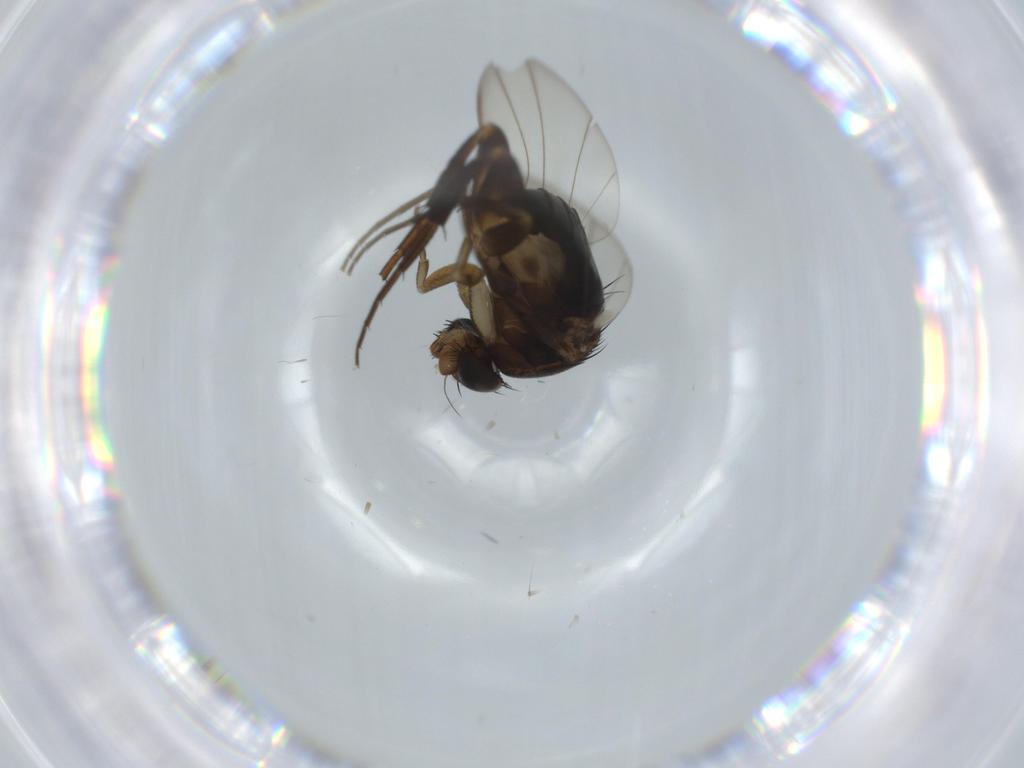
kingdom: Animalia
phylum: Arthropoda
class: Insecta
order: Diptera
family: Phoridae
